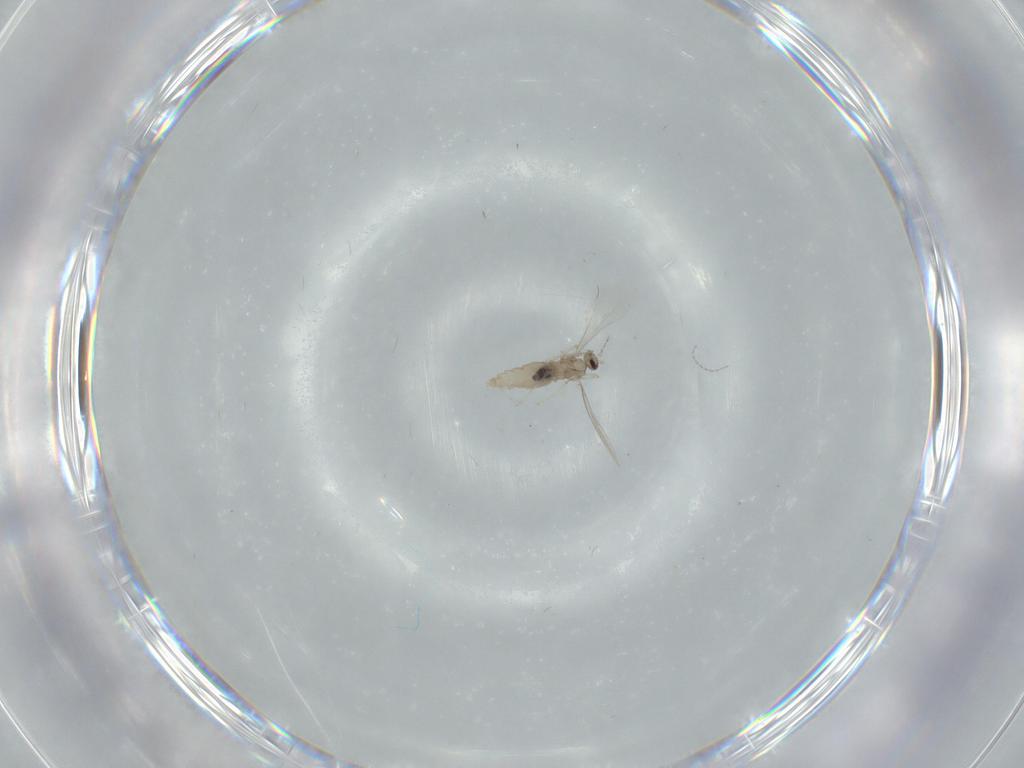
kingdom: Animalia
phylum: Arthropoda
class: Insecta
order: Diptera
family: Cecidomyiidae
